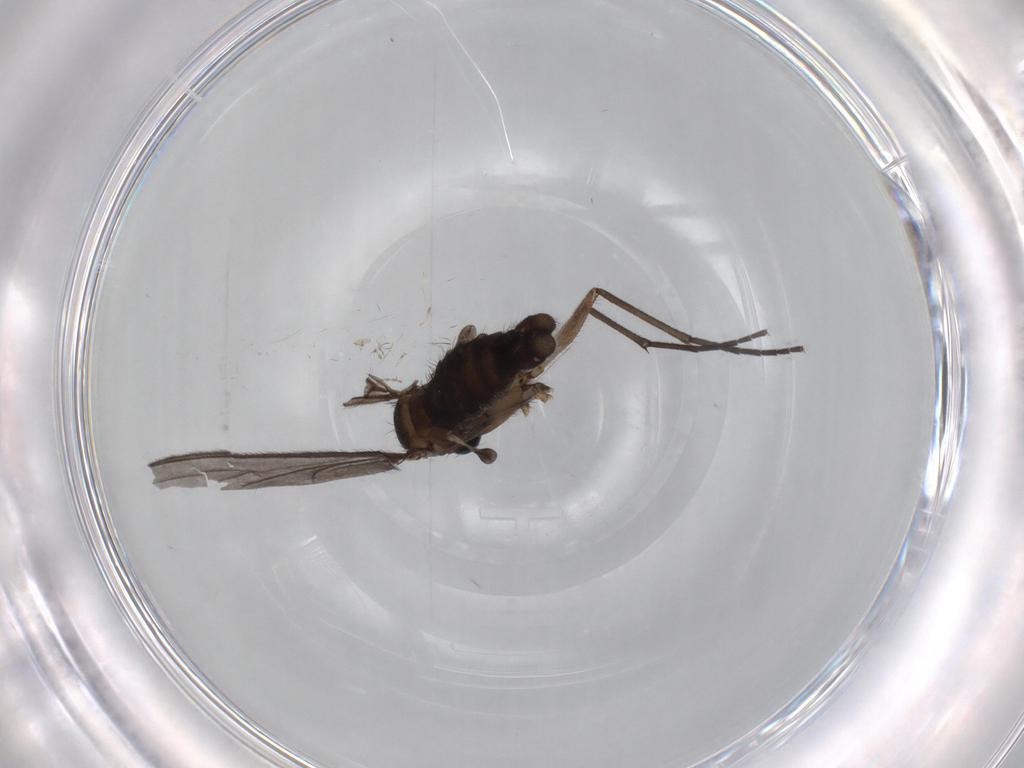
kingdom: Animalia
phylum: Arthropoda
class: Insecta
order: Diptera
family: Sciaridae
